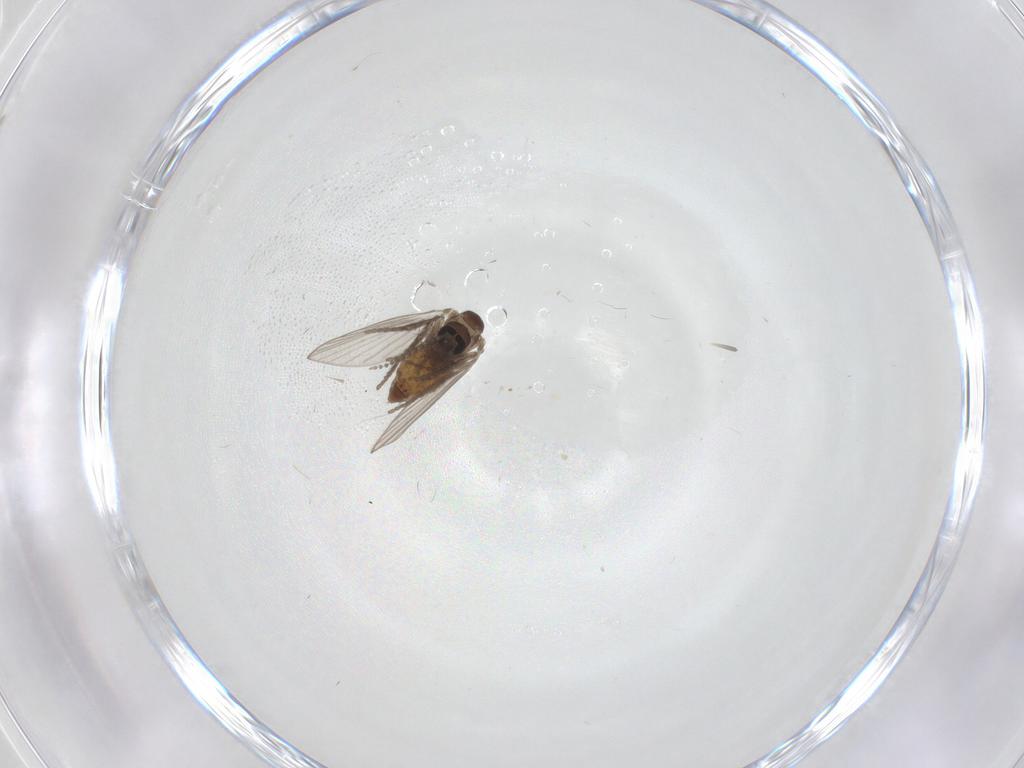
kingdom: Animalia
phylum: Arthropoda
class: Insecta
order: Diptera
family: Psychodidae
